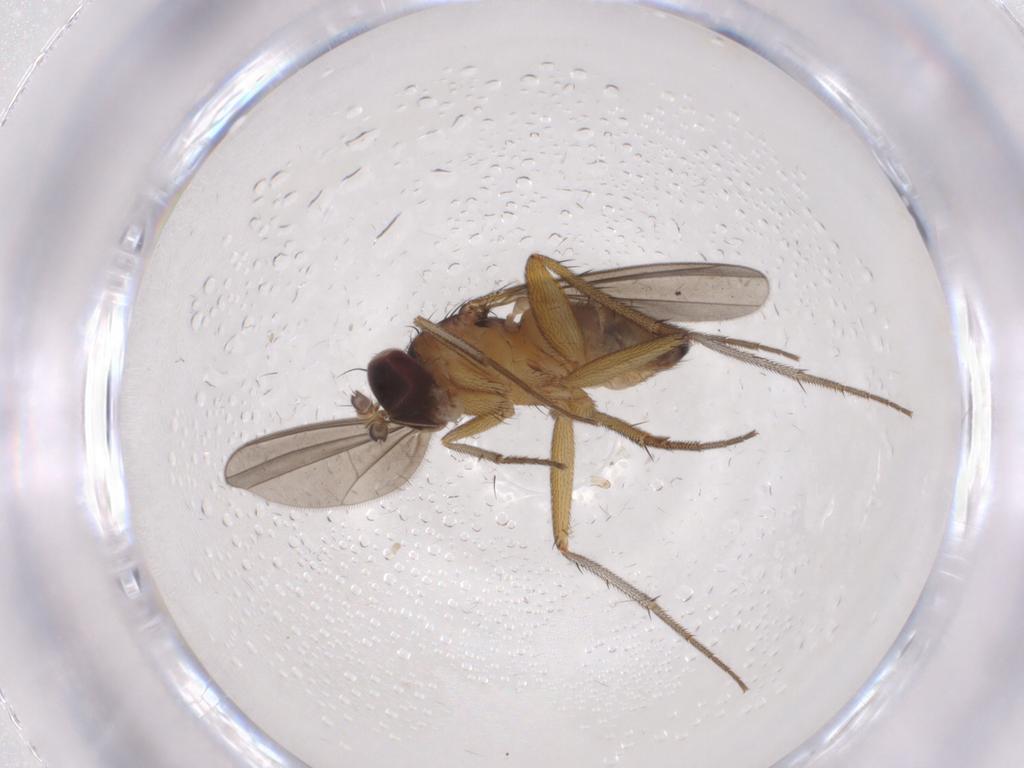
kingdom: Animalia
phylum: Arthropoda
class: Insecta
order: Diptera
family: Dolichopodidae
